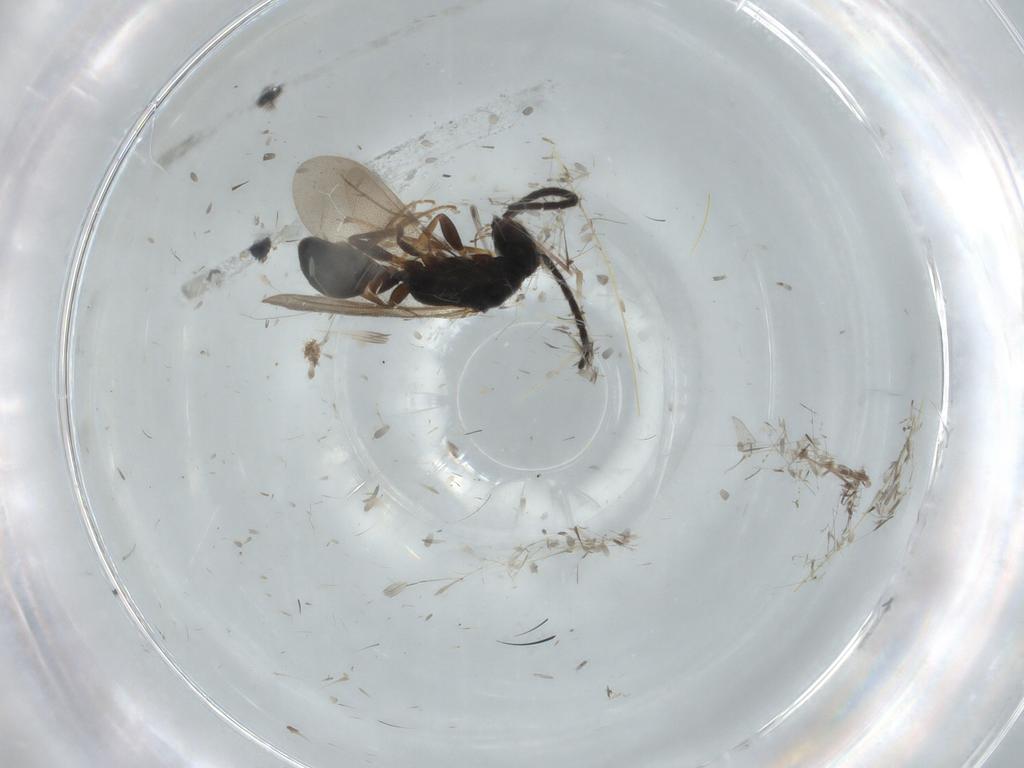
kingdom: Animalia
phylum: Arthropoda
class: Insecta
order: Hymenoptera
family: Bethylidae
